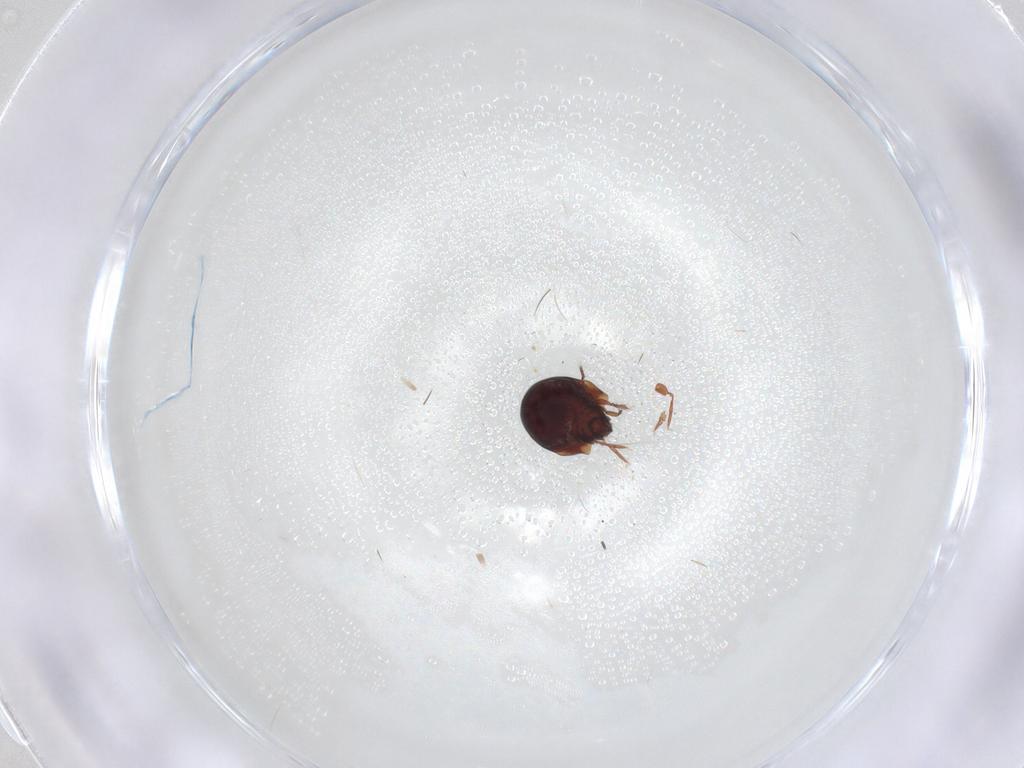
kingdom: Animalia
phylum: Arthropoda
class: Arachnida
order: Sarcoptiformes
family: Humerobatidae
